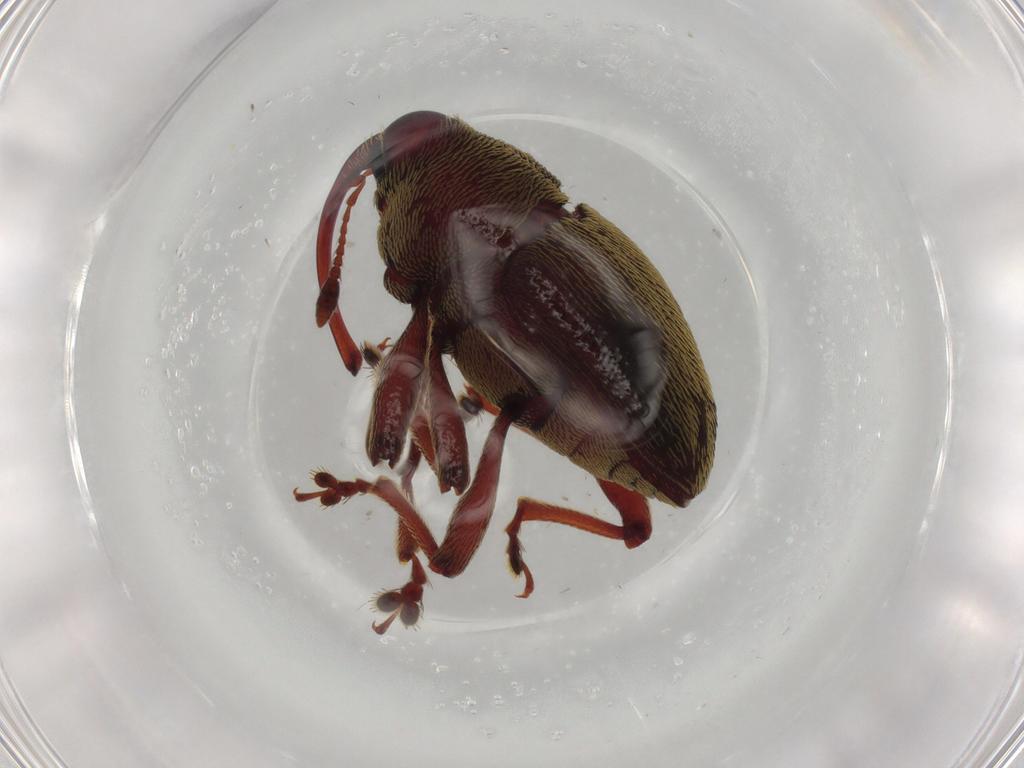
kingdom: Animalia
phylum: Arthropoda
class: Insecta
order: Coleoptera
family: Curculionidae
